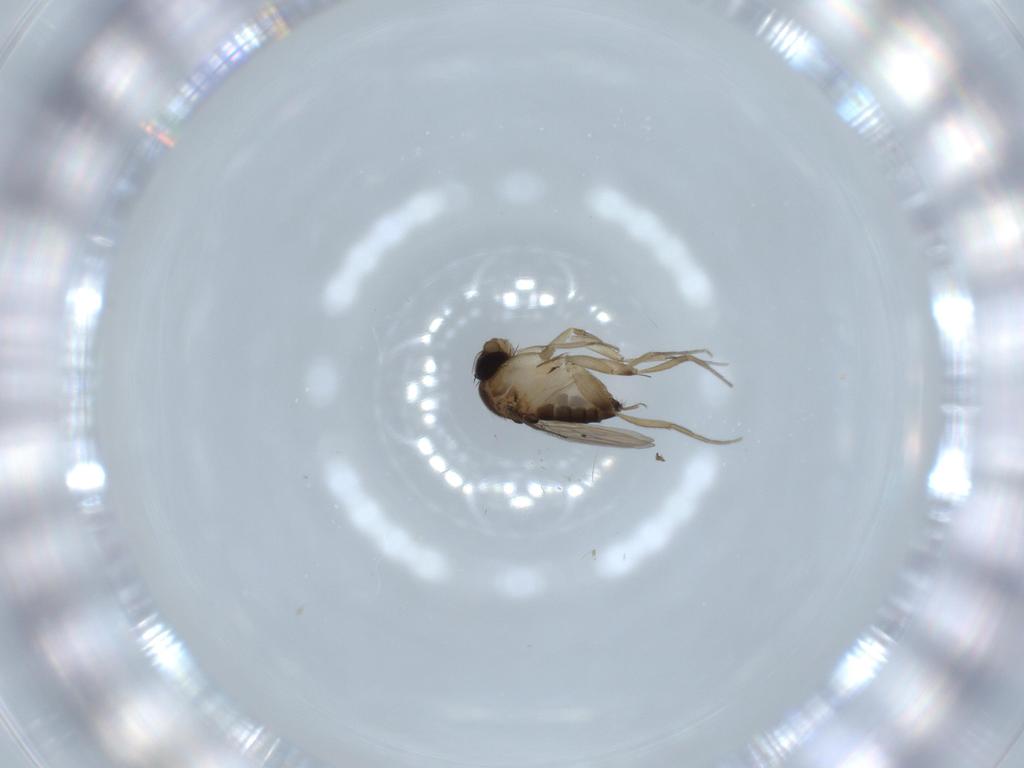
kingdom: Animalia
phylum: Arthropoda
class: Insecta
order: Diptera
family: Phoridae
